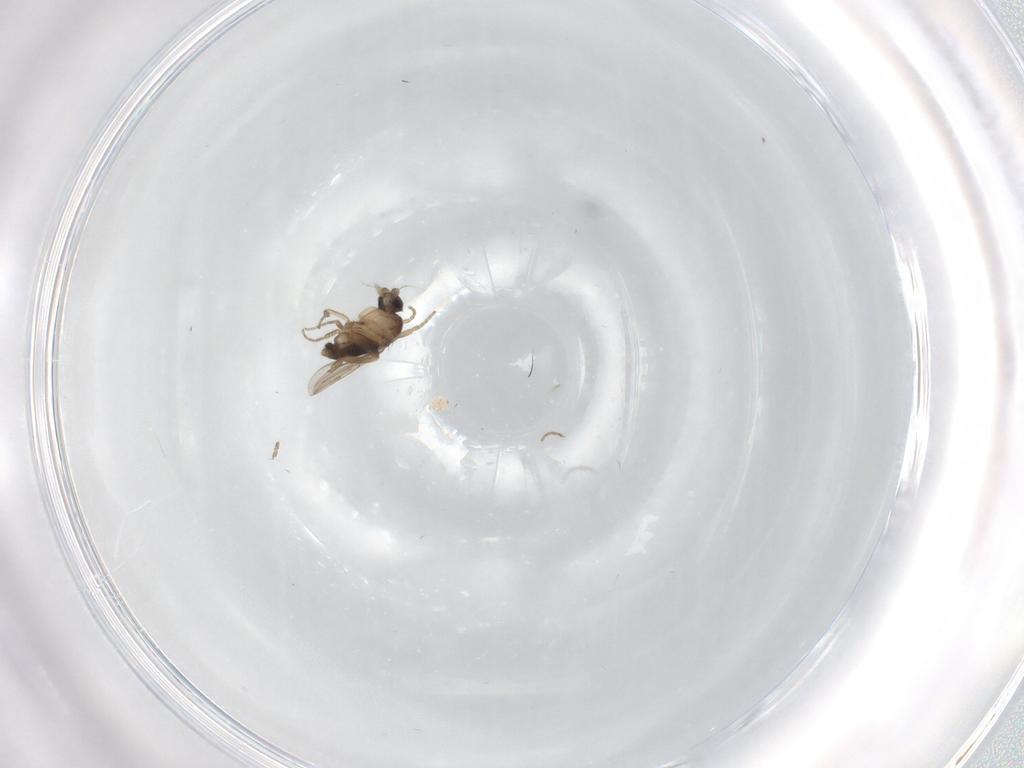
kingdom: Animalia
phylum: Arthropoda
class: Insecta
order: Diptera
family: Phoridae
